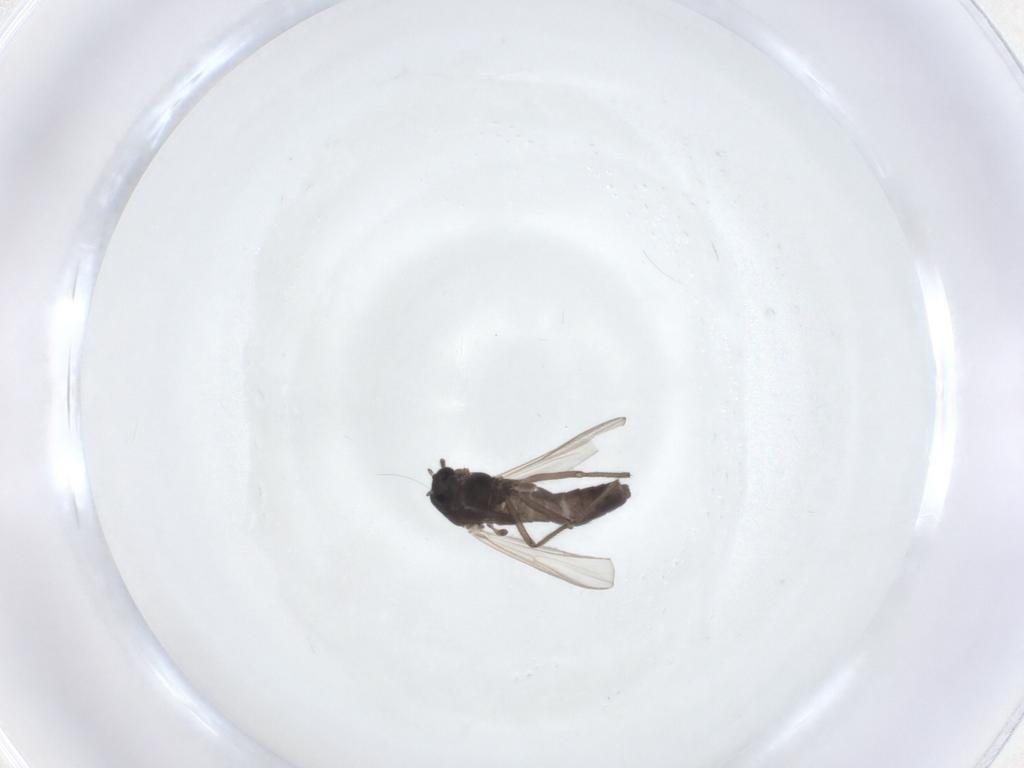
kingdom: Animalia
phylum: Arthropoda
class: Insecta
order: Diptera
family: Chironomidae
